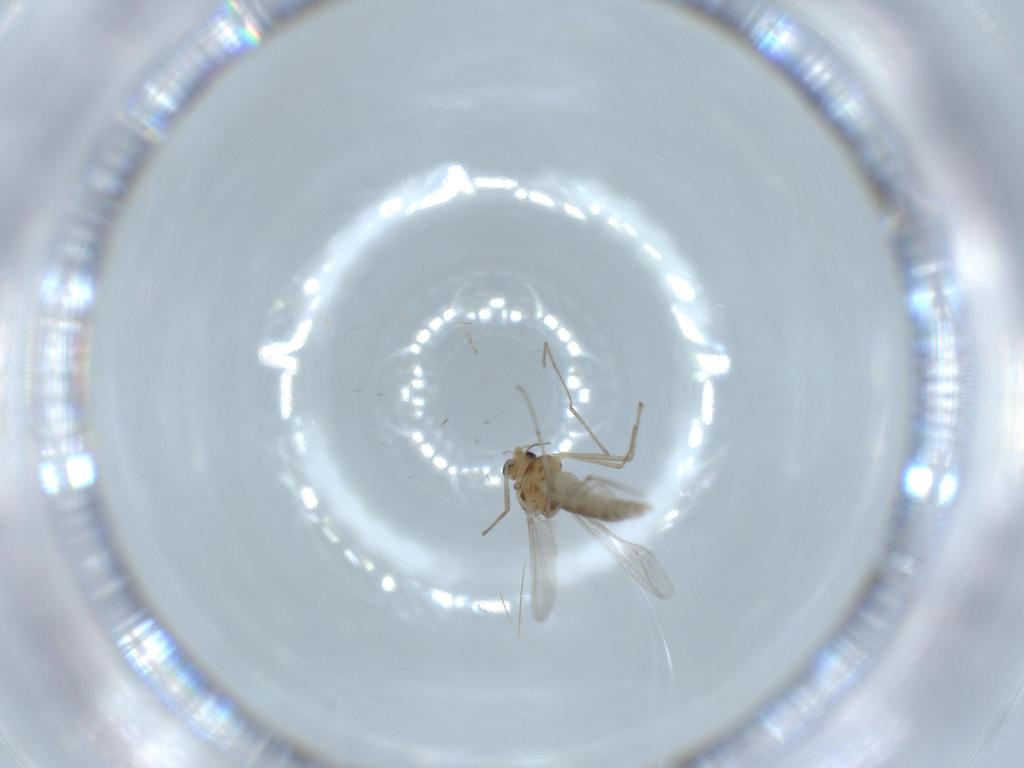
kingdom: Animalia
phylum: Arthropoda
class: Insecta
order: Diptera
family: Chironomidae
